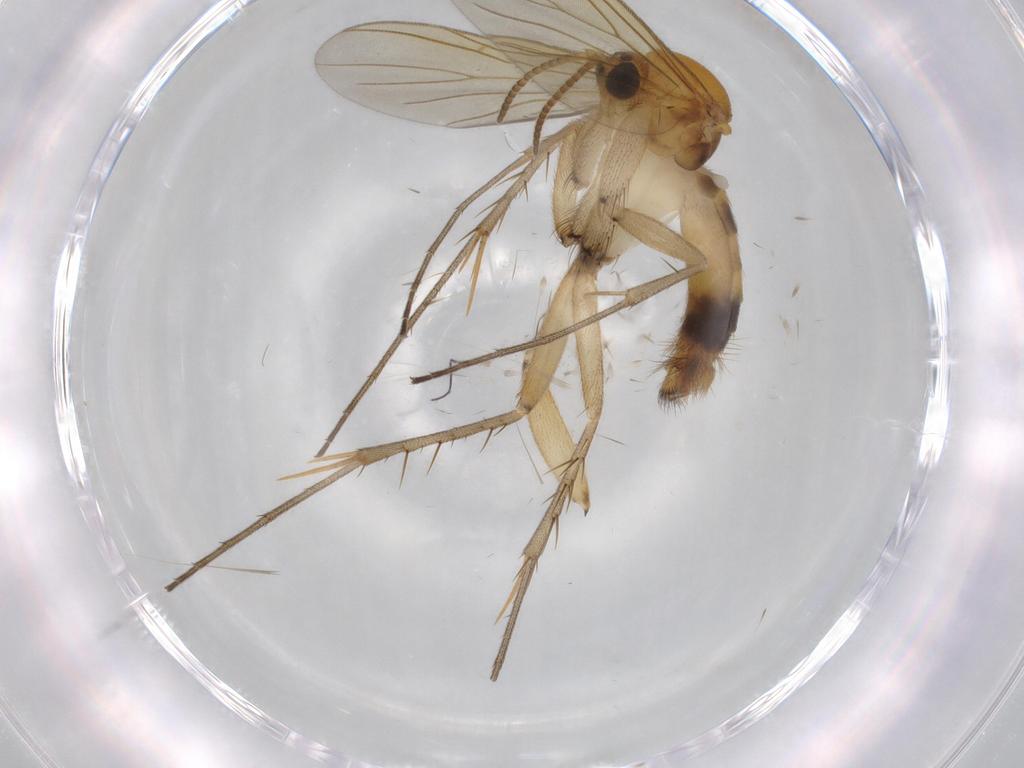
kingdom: Animalia
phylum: Arthropoda
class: Insecta
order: Diptera
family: Mycetophilidae
